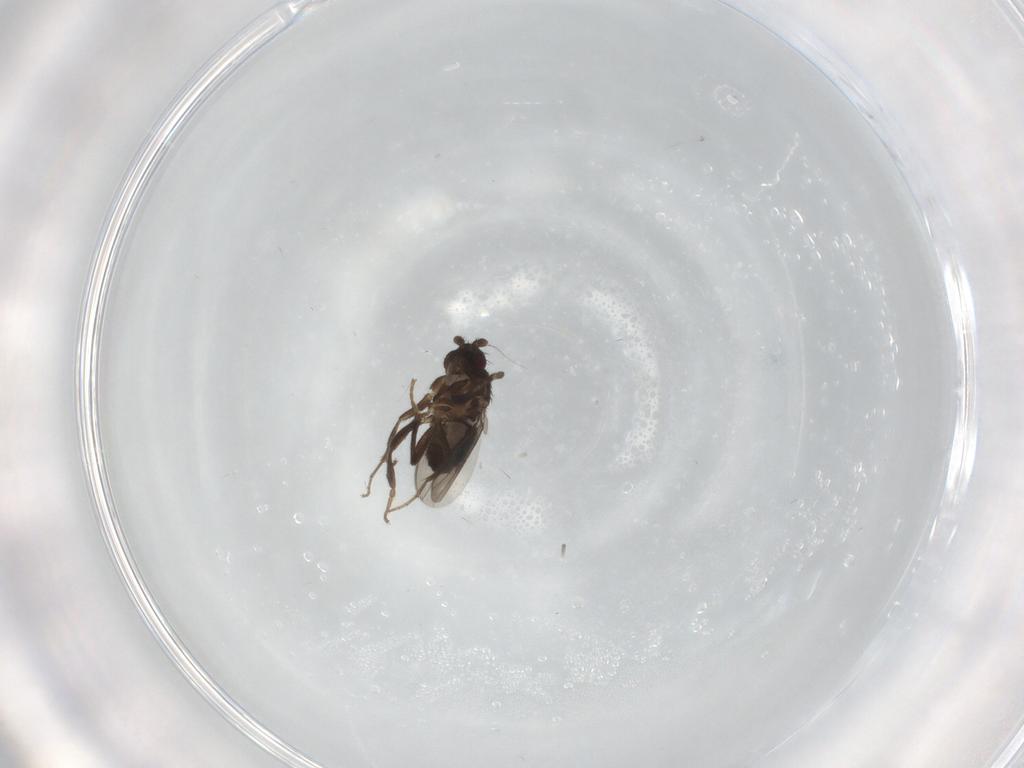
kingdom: Animalia
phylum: Arthropoda
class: Insecta
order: Diptera
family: Sphaeroceridae
